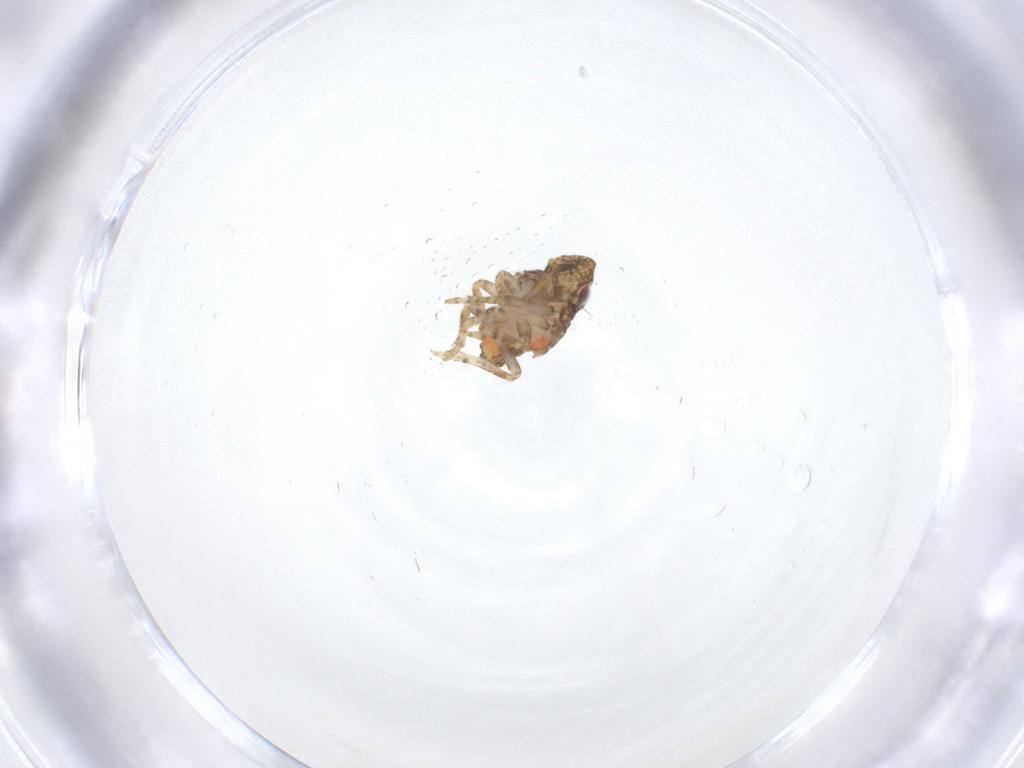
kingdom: Animalia
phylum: Arthropoda
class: Insecta
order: Hemiptera
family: Nogodinidae
